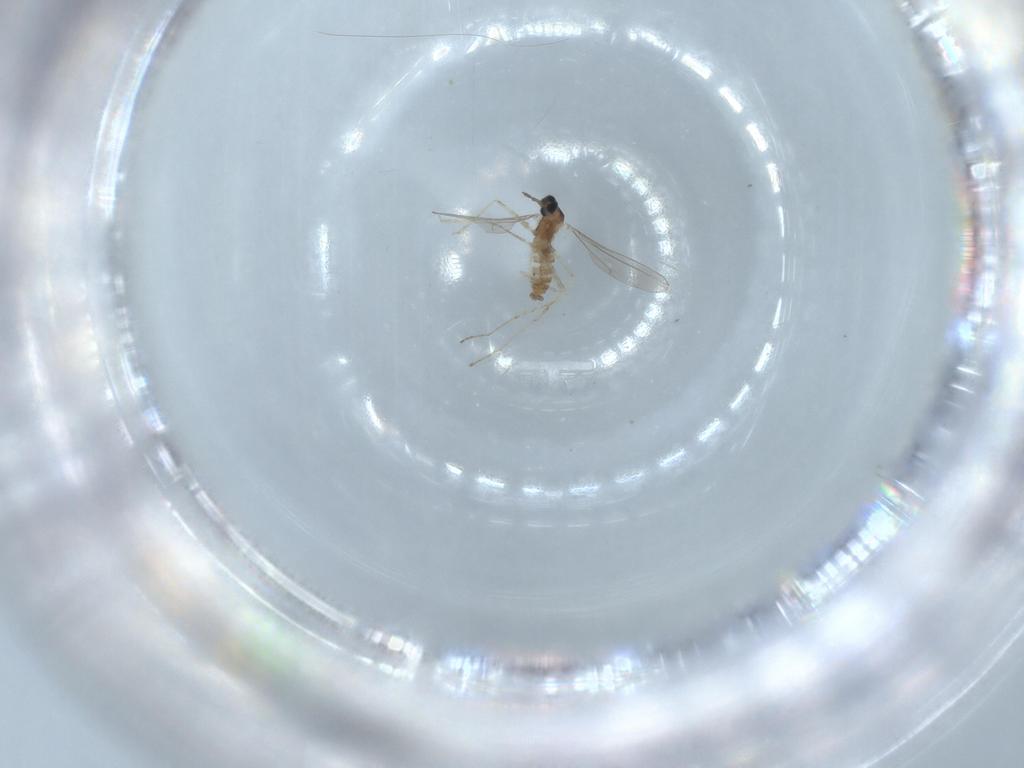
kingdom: Animalia
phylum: Arthropoda
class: Insecta
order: Diptera
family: Cecidomyiidae
